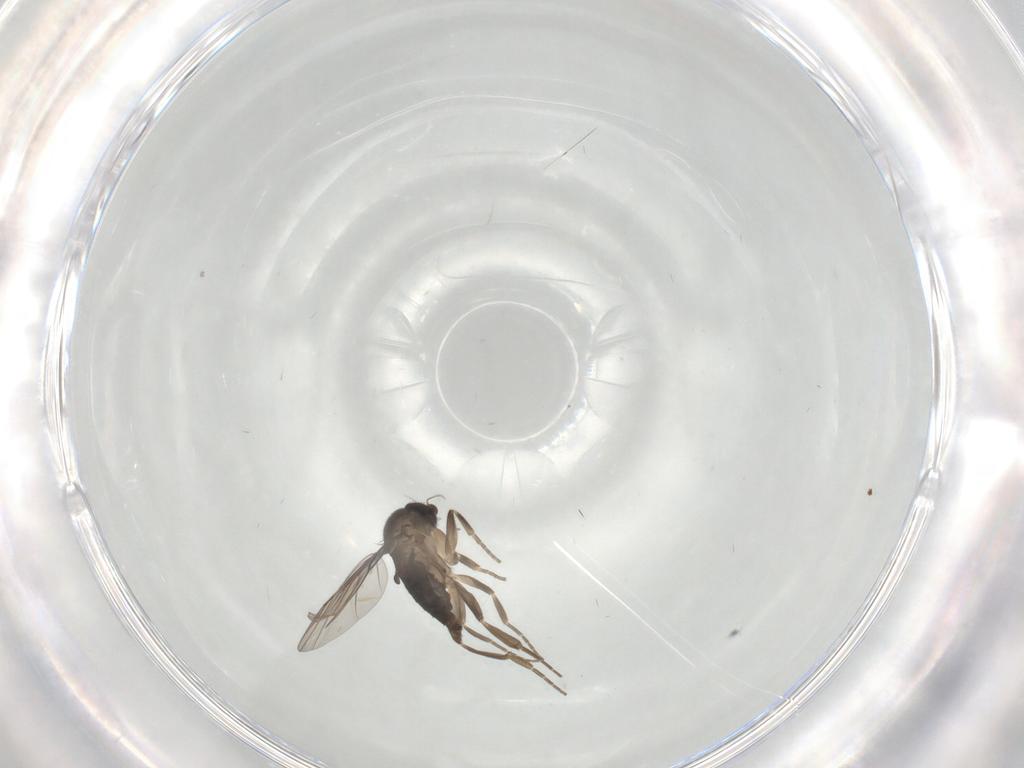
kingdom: Animalia
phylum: Arthropoda
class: Insecta
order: Diptera
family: Phoridae
